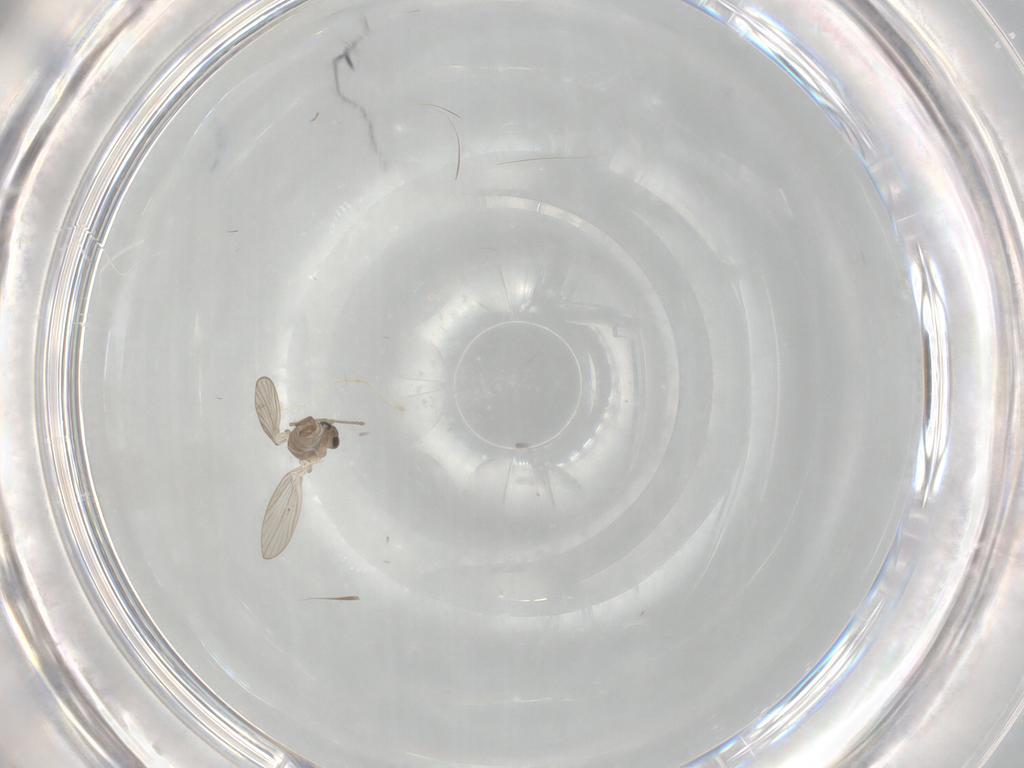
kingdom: Animalia
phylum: Arthropoda
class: Insecta
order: Diptera
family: Psychodidae
